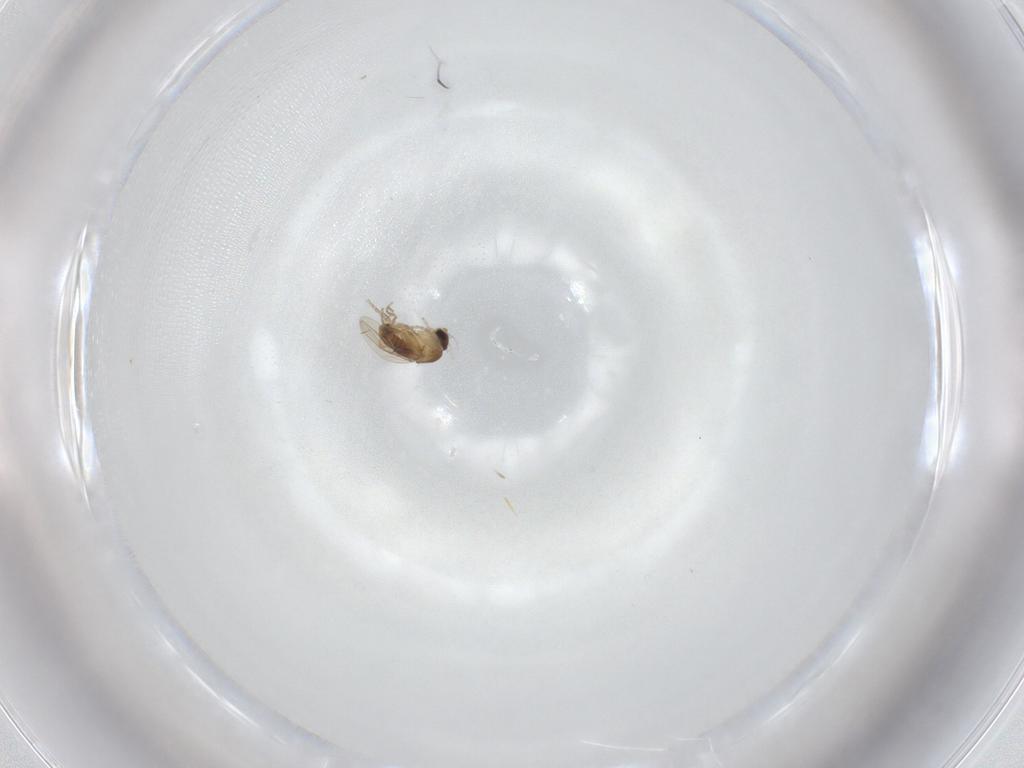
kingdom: Animalia
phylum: Arthropoda
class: Insecta
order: Diptera
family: Phoridae
